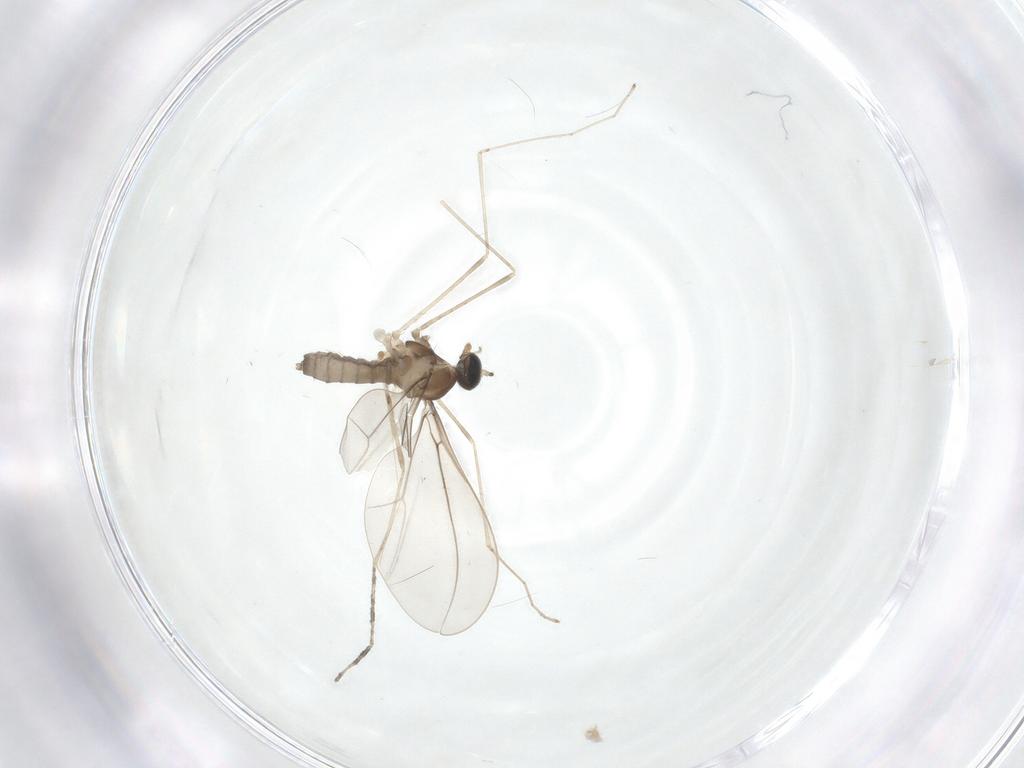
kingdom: Animalia
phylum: Arthropoda
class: Insecta
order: Diptera
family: Cecidomyiidae
